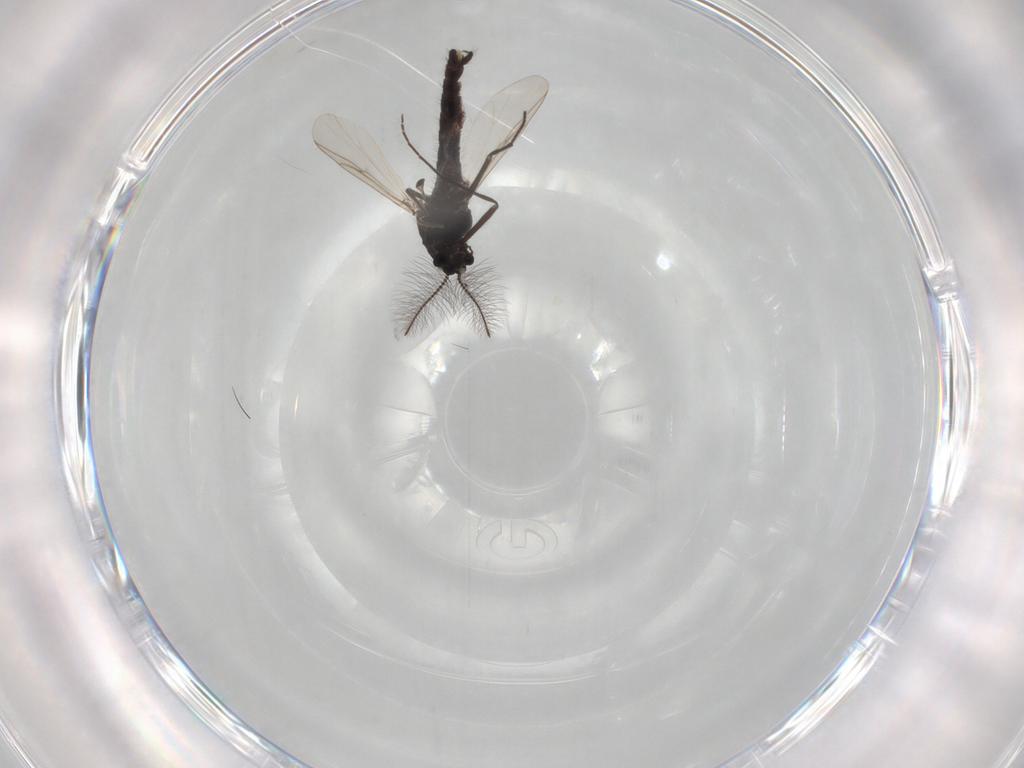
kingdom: Animalia
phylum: Arthropoda
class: Insecta
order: Diptera
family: Chironomidae
